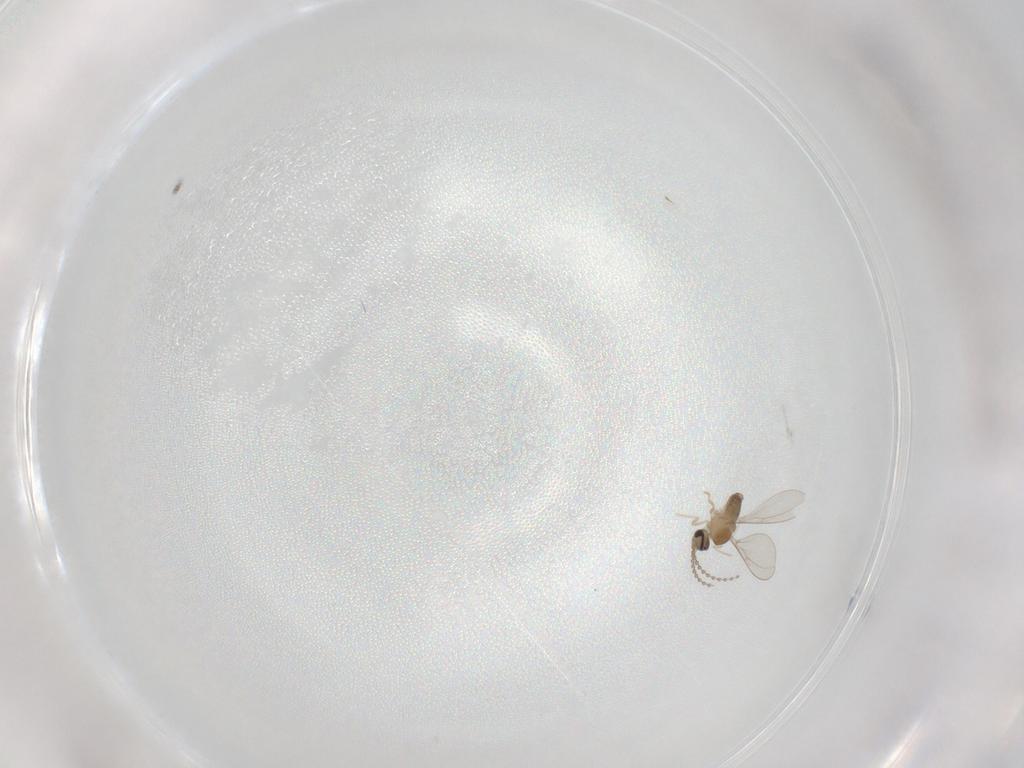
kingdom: Animalia
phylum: Arthropoda
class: Insecta
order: Diptera
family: Cecidomyiidae
